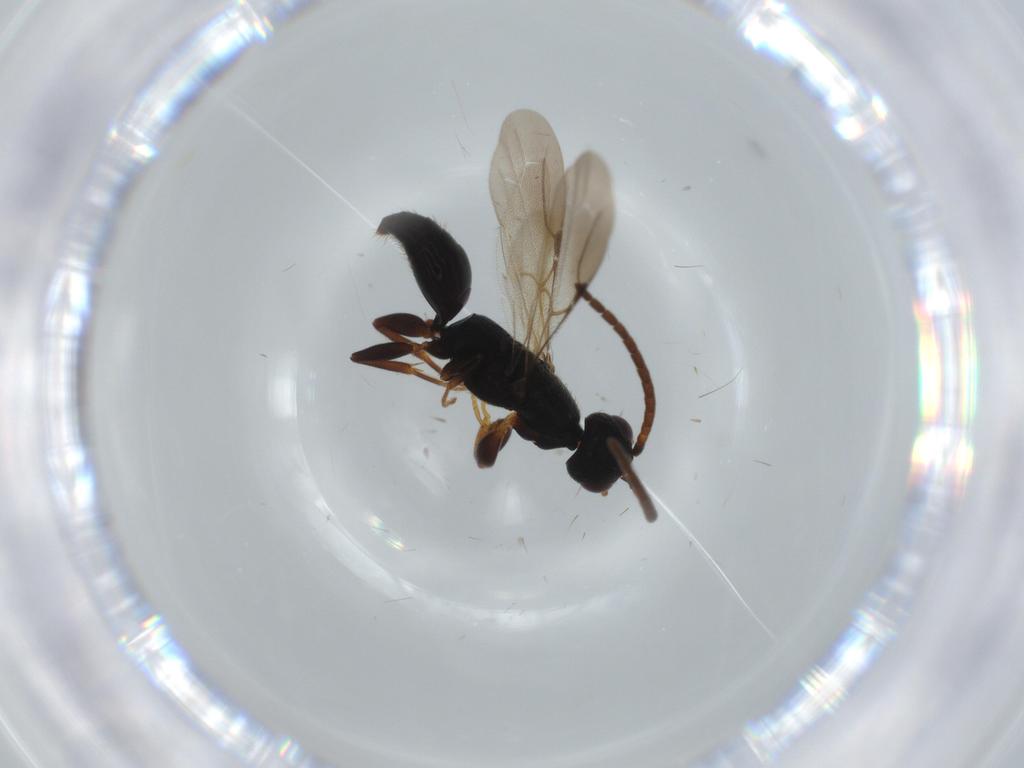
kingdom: Animalia
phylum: Arthropoda
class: Insecta
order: Hymenoptera
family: Bethylidae
